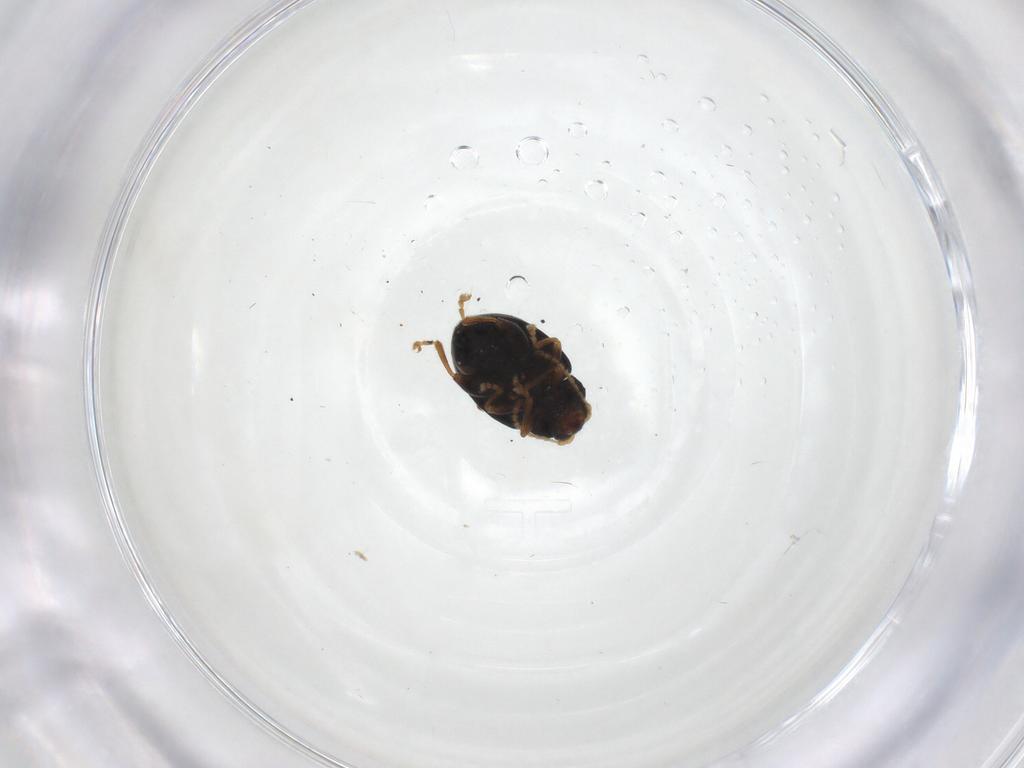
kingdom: Animalia
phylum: Arthropoda
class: Insecta
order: Coleoptera
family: Chrysomelidae
